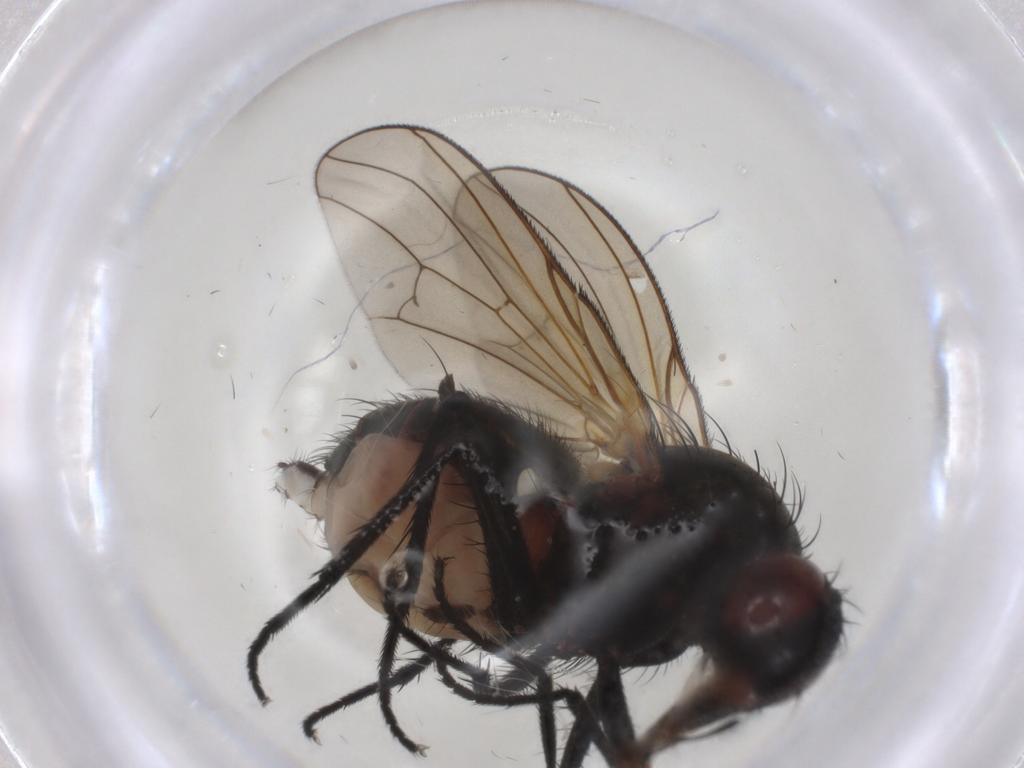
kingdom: Animalia
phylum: Arthropoda
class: Insecta
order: Diptera
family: Anthomyiidae
